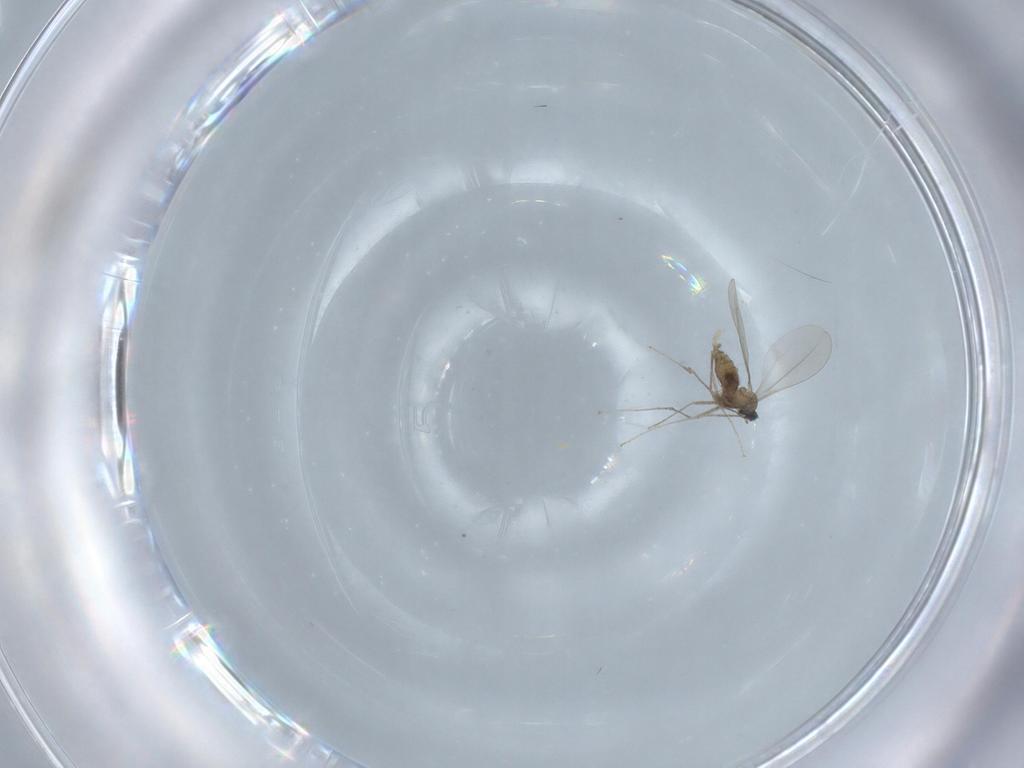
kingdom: Animalia
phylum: Arthropoda
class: Insecta
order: Diptera
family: Cecidomyiidae
